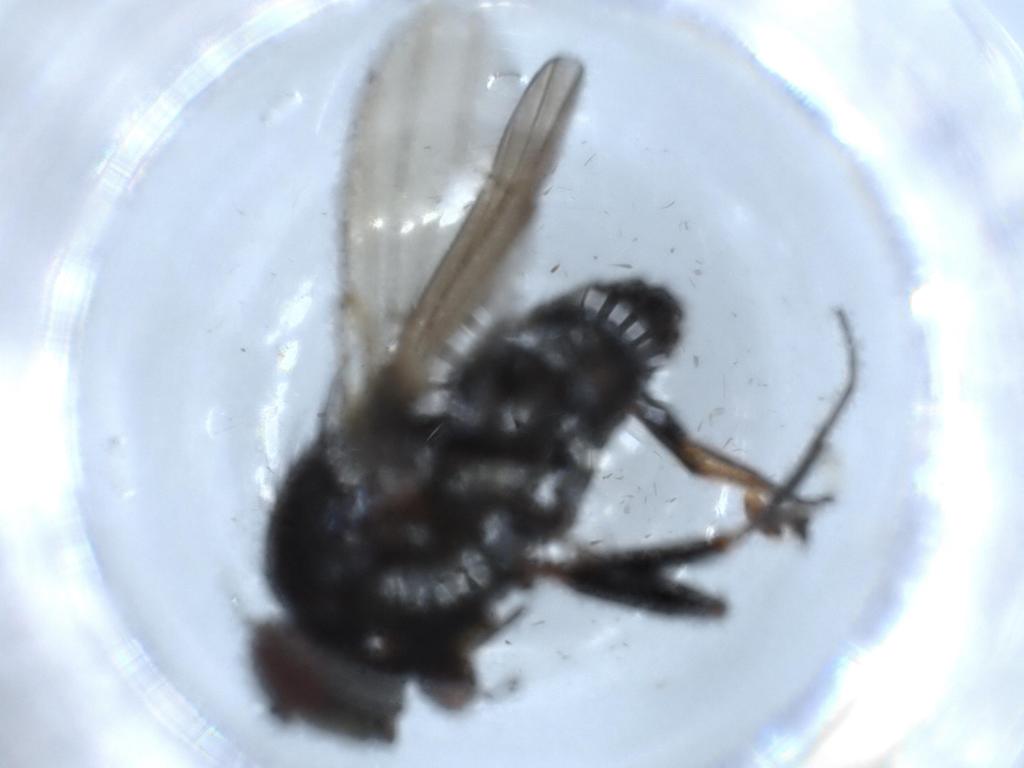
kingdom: Animalia
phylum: Arthropoda
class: Insecta
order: Diptera
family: Ephydridae
